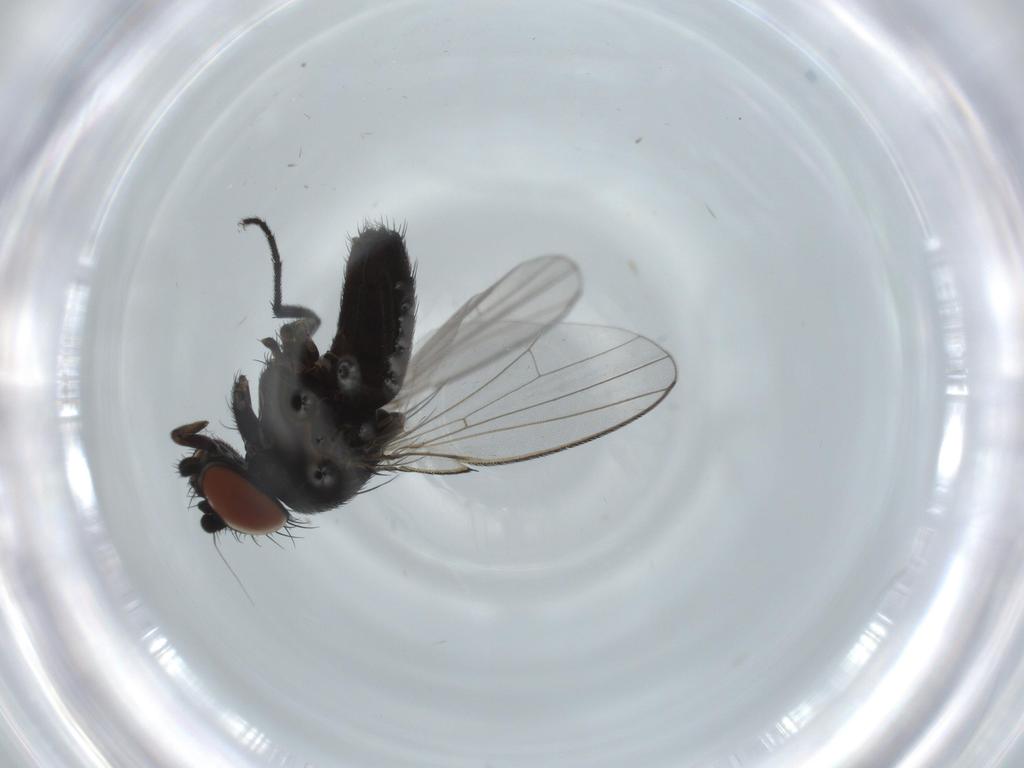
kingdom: Animalia
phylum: Arthropoda
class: Insecta
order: Diptera
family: Milichiidae
